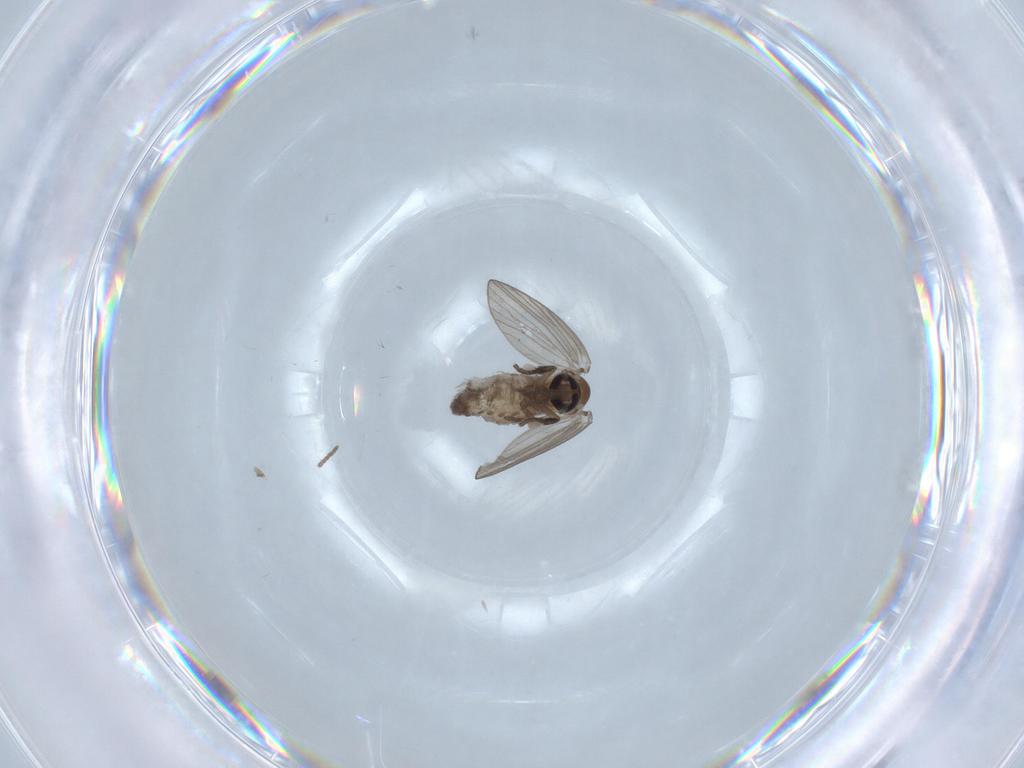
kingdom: Animalia
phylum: Arthropoda
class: Insecta
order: Diptera
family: Psychodidae
